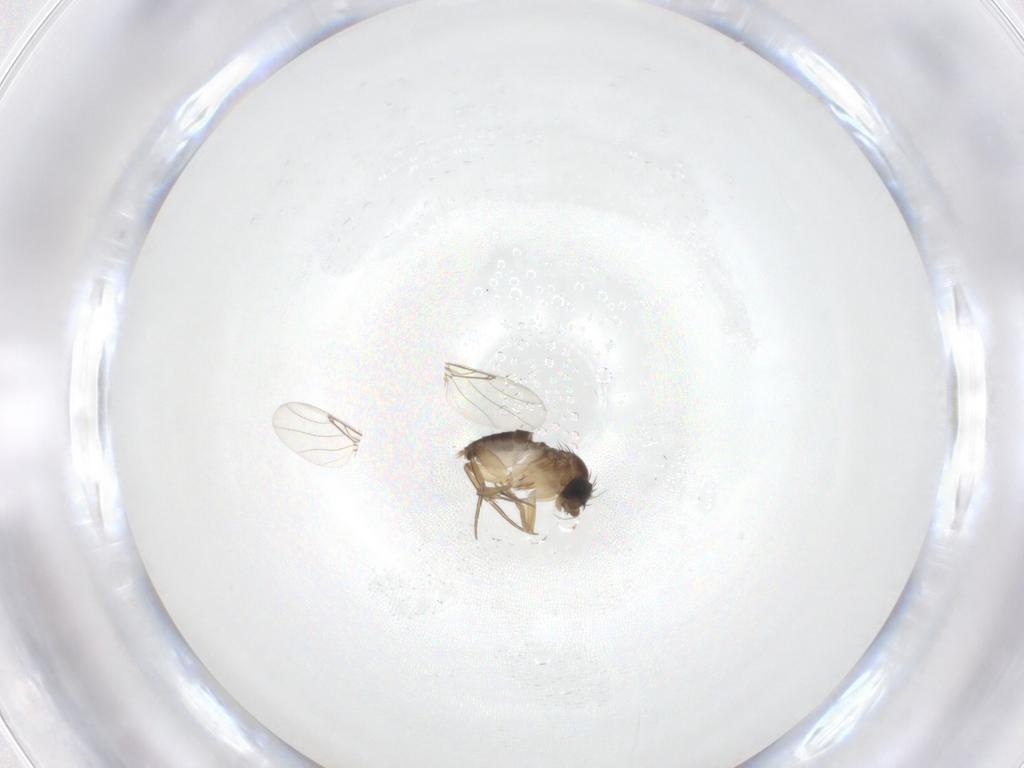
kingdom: Animalia
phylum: Arthropoda
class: Insecta
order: Diptera
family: Phoridae
